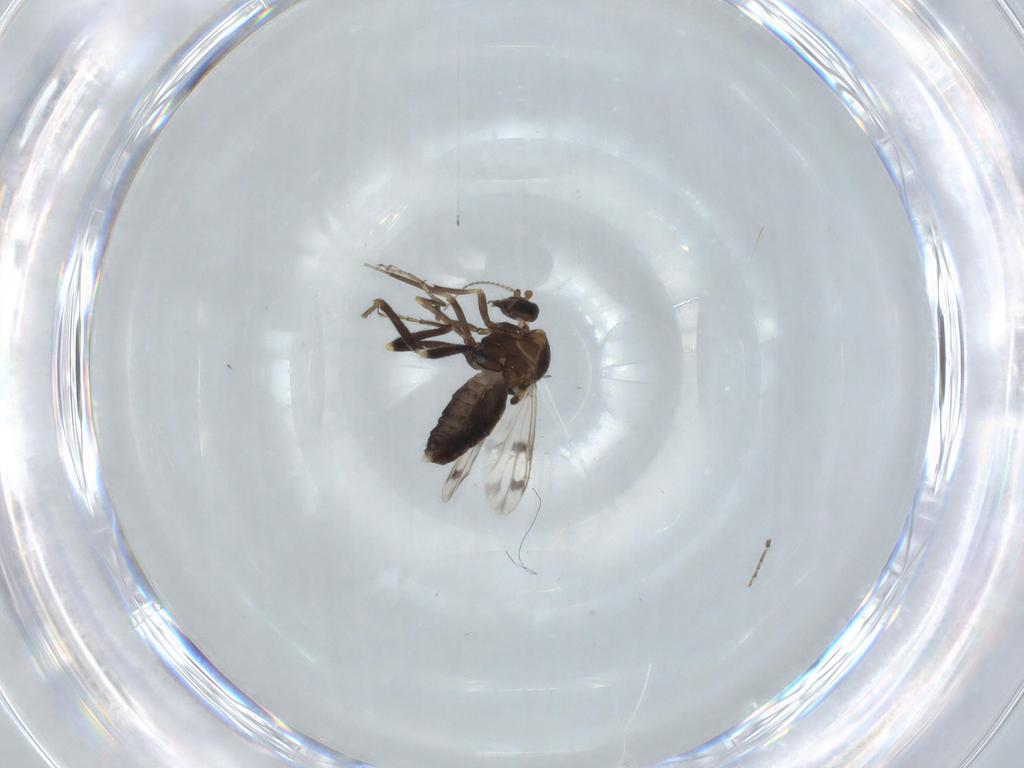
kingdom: Animalia
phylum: Arthropoda
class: Insecta
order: Diptera
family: Ceratopogonidae
